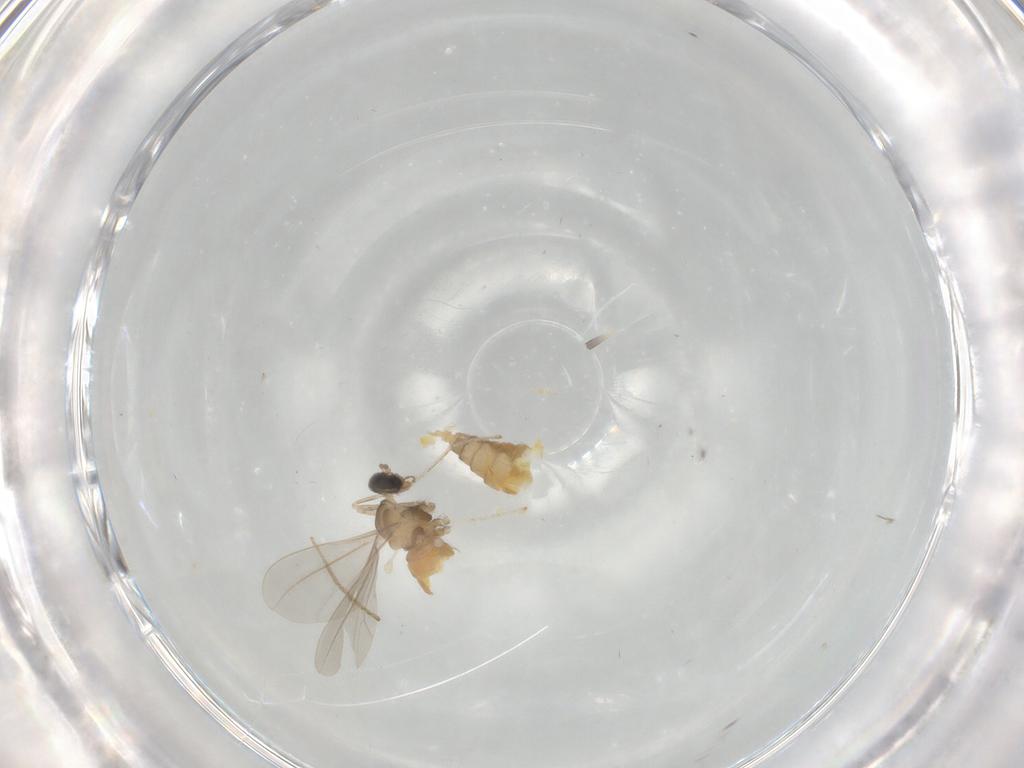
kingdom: Animalia
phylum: Arthropoda
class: Insecta
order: Diptera
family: Cecidomyiidae
